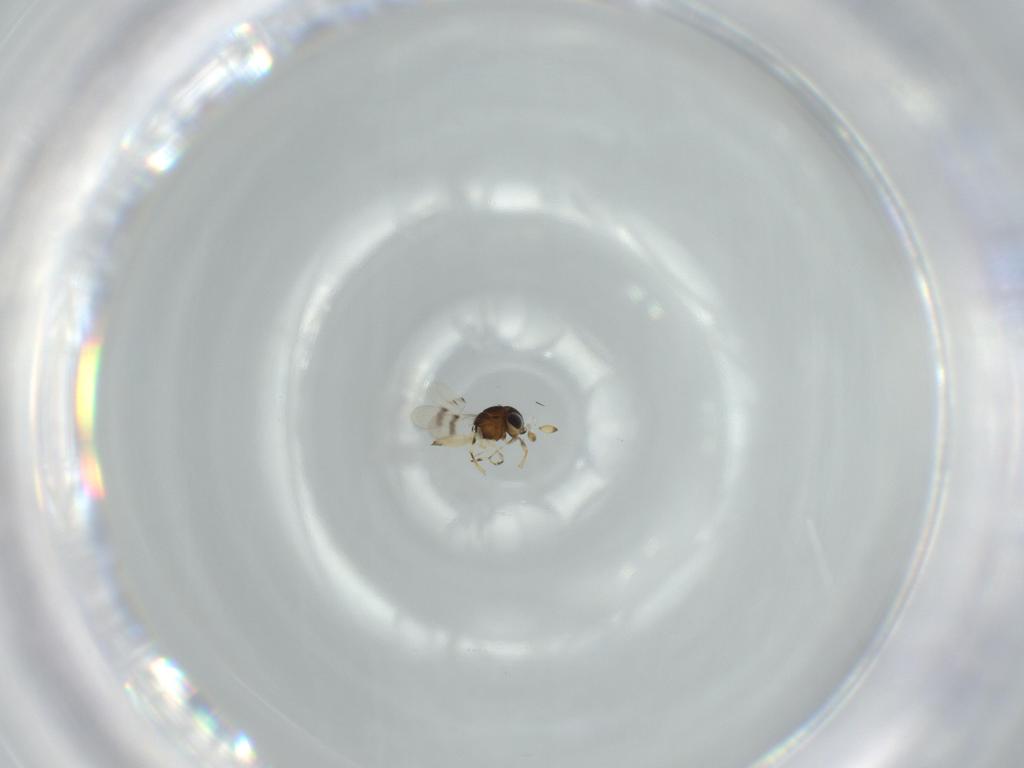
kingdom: Animalia
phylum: Arthropoda
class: Insecta
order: Hymenoptera
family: Scelionidae
